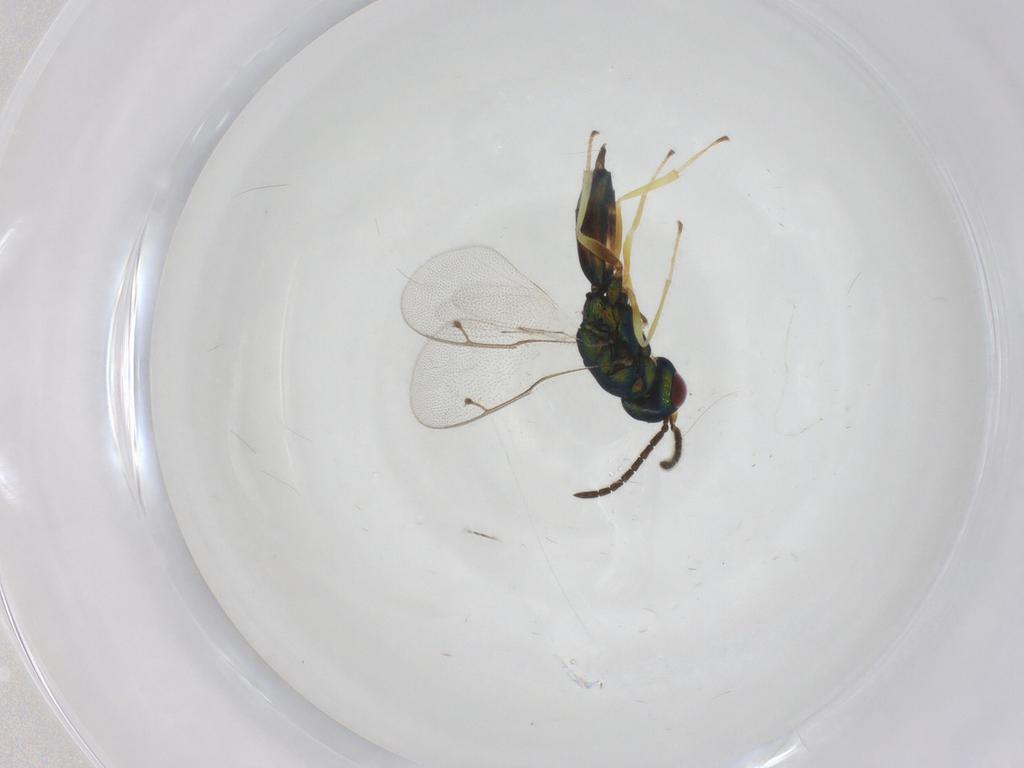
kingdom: Animalia
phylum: Arthropoda
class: Insecta
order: Hymenoptera
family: Pteromalidae
